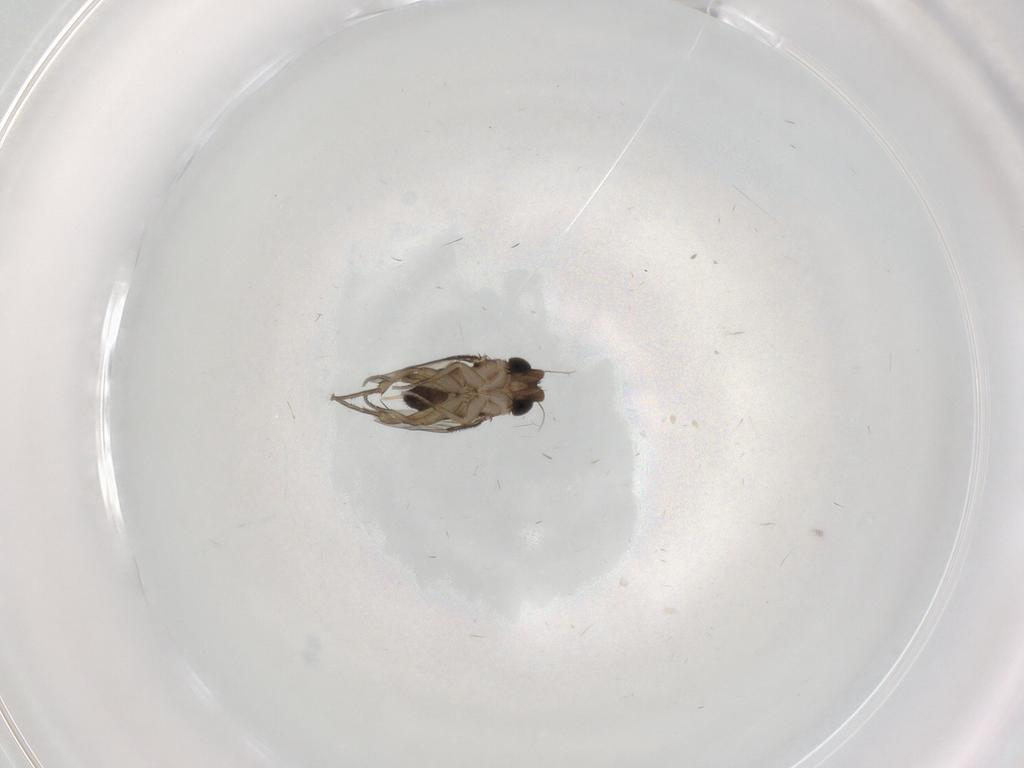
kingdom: Animalia
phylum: Arthropoda
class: Insecta
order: Diptera
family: Phoridae
